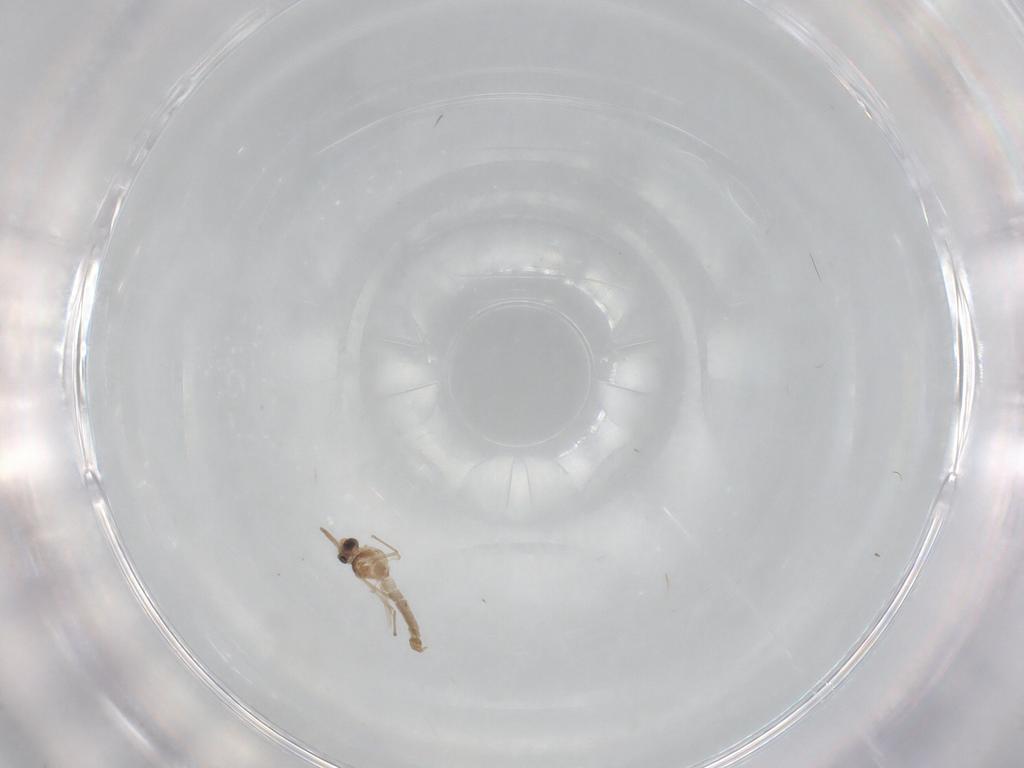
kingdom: Animalia
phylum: Arthropoda
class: Insecta
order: Diptera
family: Chironomidae
